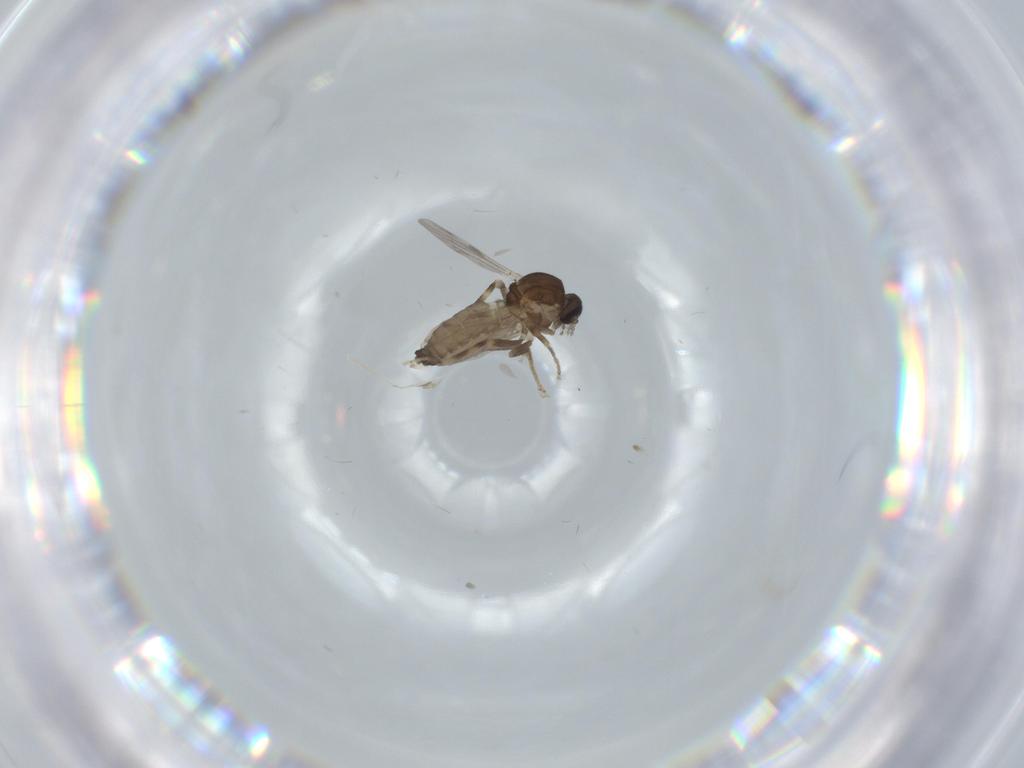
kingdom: Animalia
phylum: Arthropoda
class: Insecta
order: Diptera
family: Ceratopogonidae
